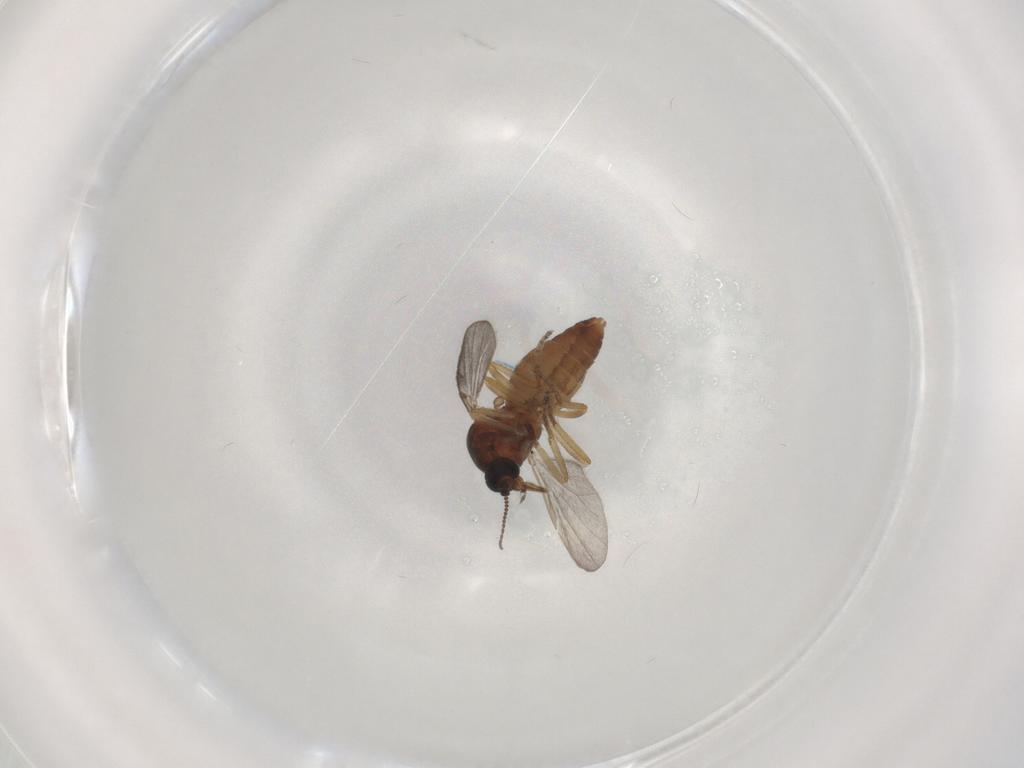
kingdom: Animalia
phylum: Arthropoda
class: Insecta
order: Diptera
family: Ceratopogonidae
